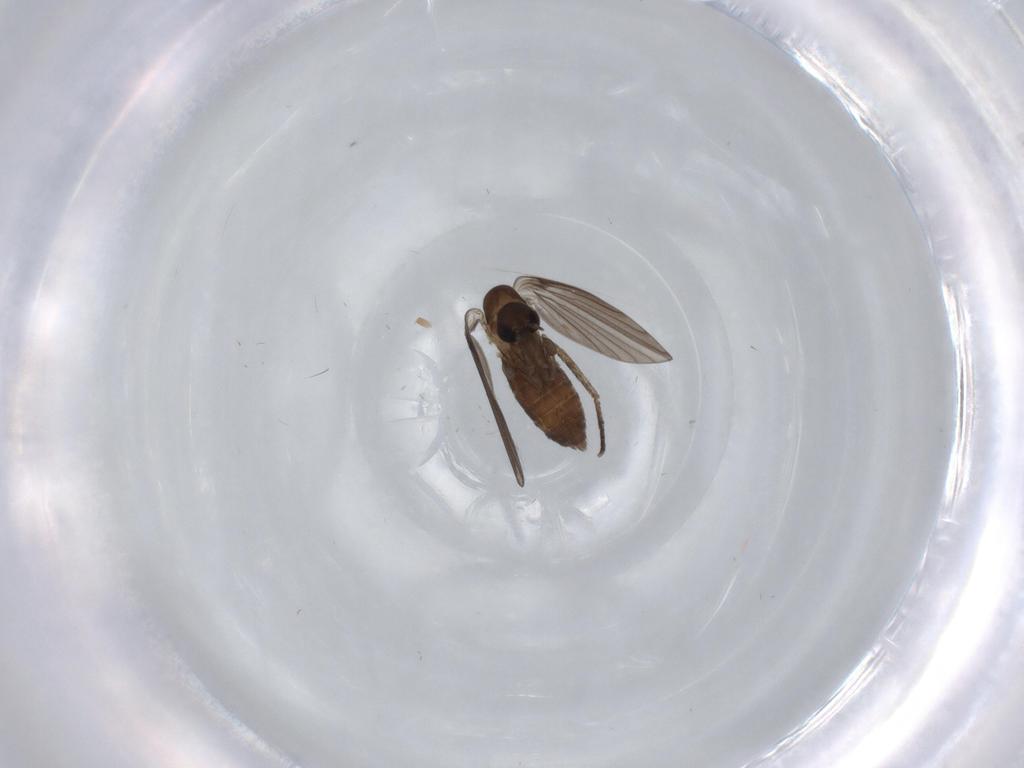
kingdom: Animalia
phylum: Arthropoda
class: Insecta
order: Diptera
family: Psychodidae
